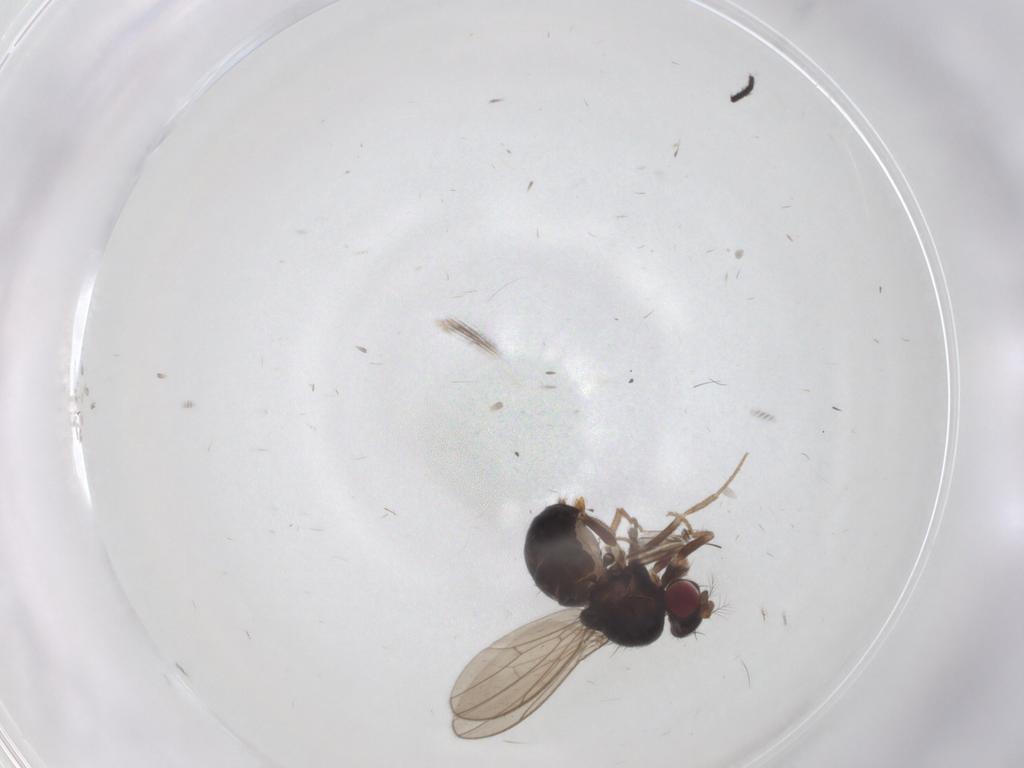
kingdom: Animalia
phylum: Arthropoda
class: Insecta
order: Diptera
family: Drosophilidae
